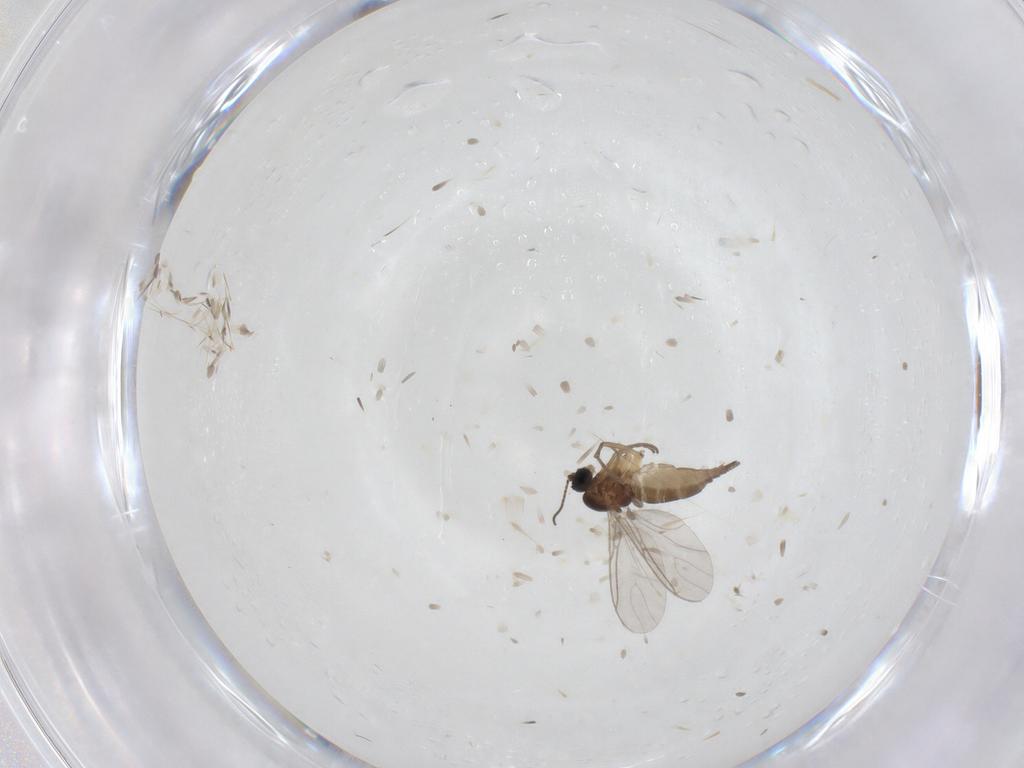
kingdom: Animalia
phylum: Arthropoda
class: Insecta
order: Diptera
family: Sciaridae
